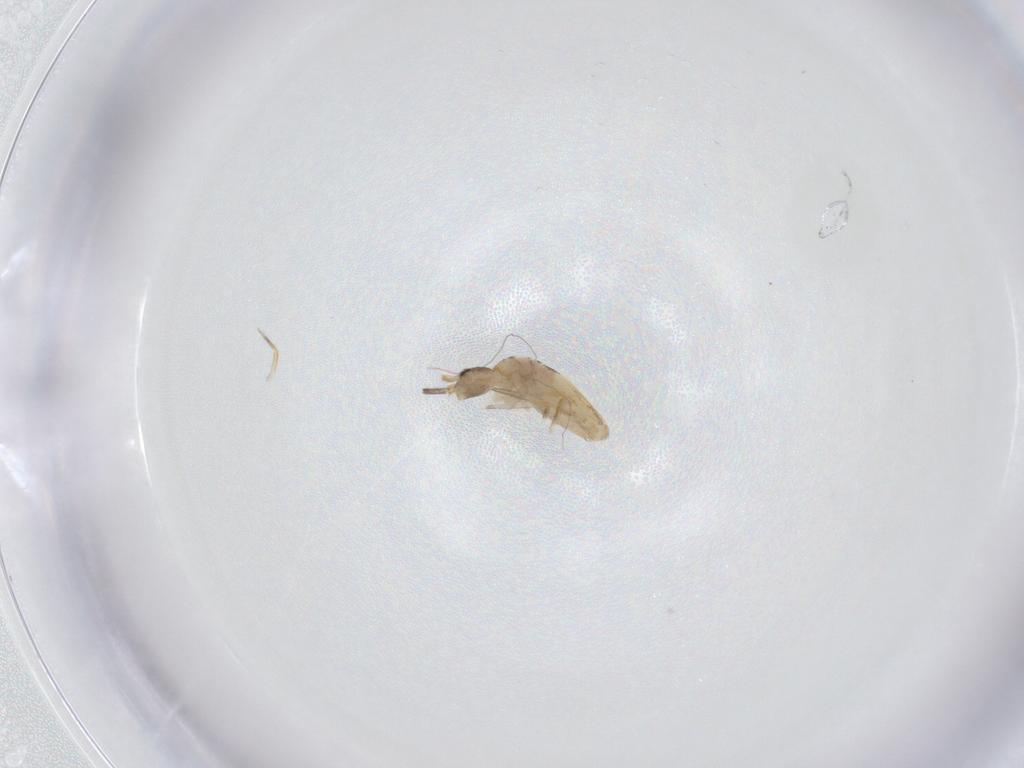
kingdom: Animalia
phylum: Arthropoda
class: Collembola
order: Entomobryomorpha
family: Entomobryidae
